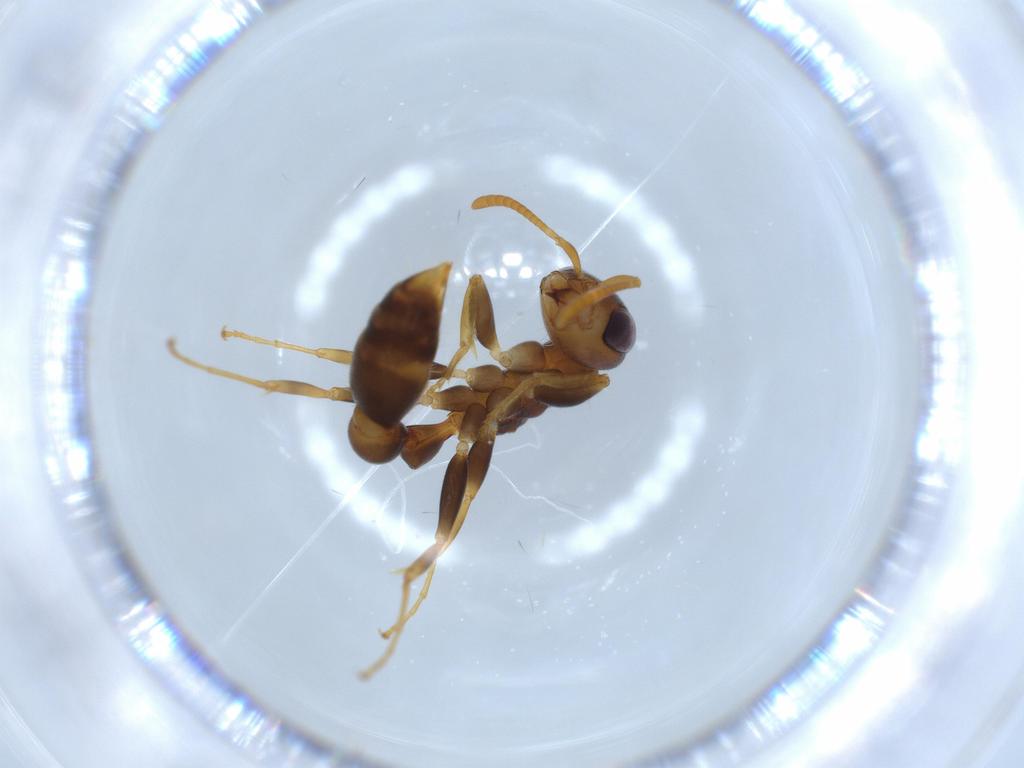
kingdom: Animalia
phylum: Arthropoda
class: Insecta
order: Hymenoptera
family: Formicidae
